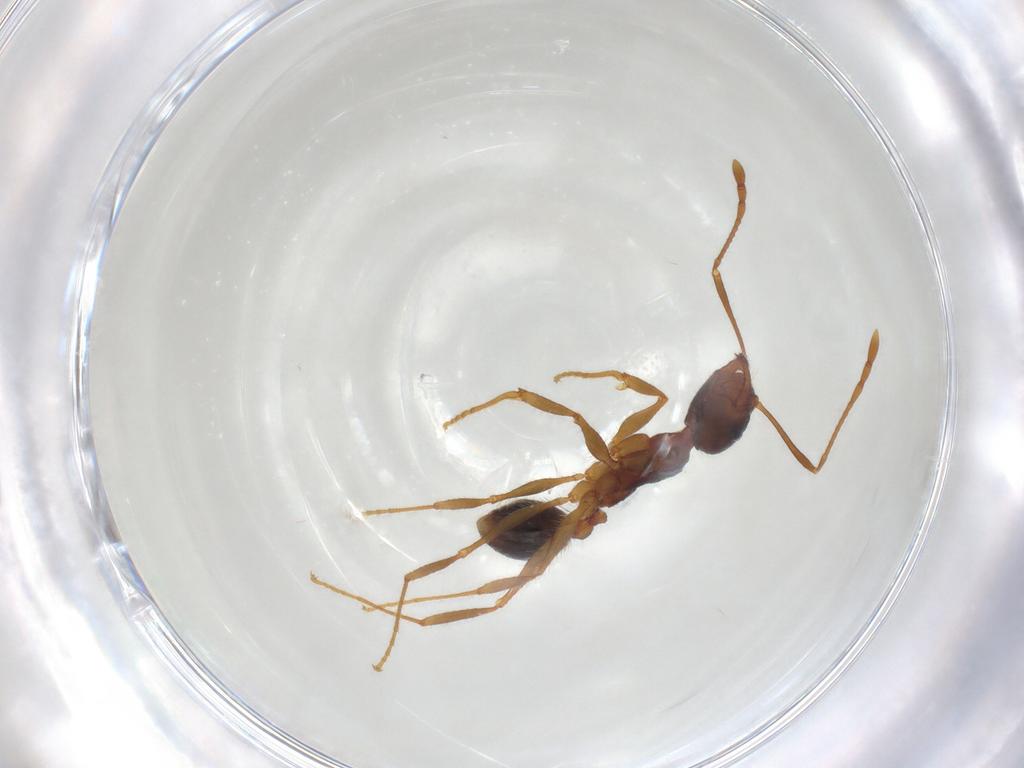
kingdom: Animalia
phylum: Arthropoda
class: Insecta
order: Hymenoptera
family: Formicidae
